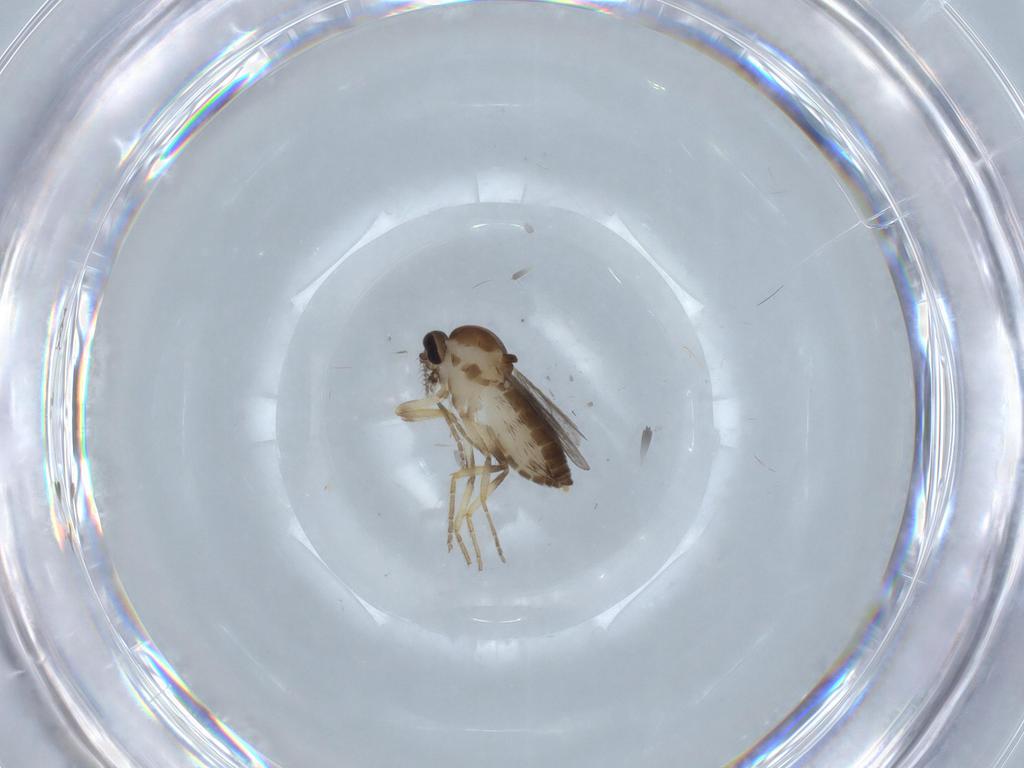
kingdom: Animalia
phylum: Arthropoda
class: Insecta
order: Diptera
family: Ceratopogonidae
